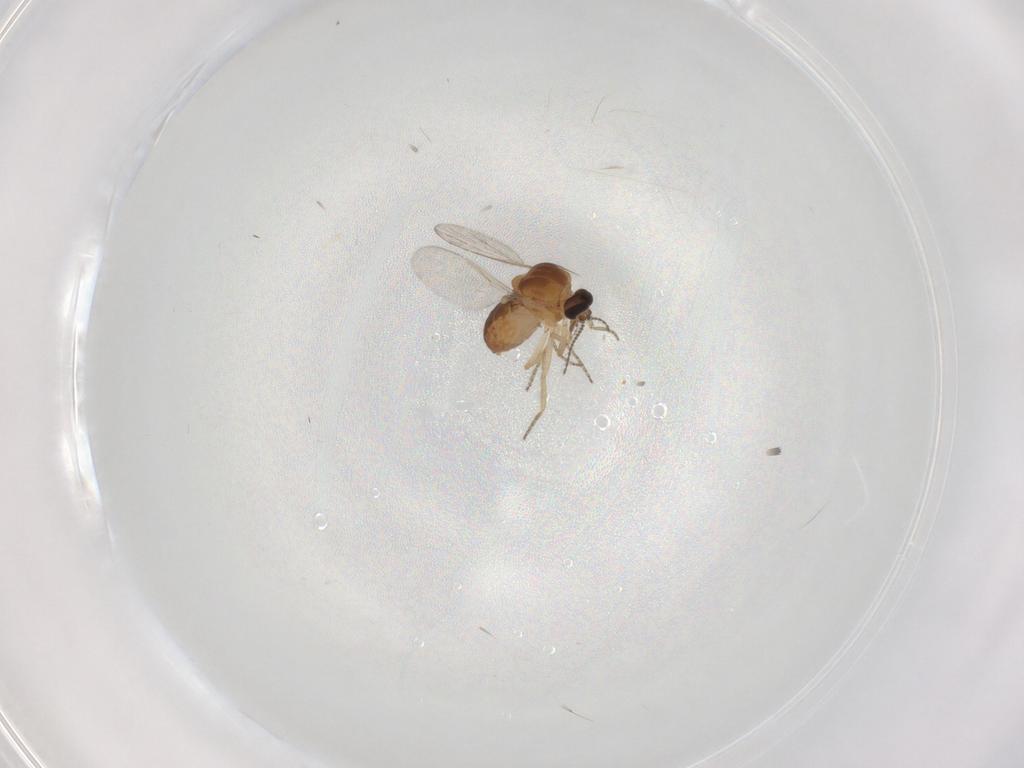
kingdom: Animalia
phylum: Arthropoda
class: Insecta
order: Diptera
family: Ceratopogonidae
